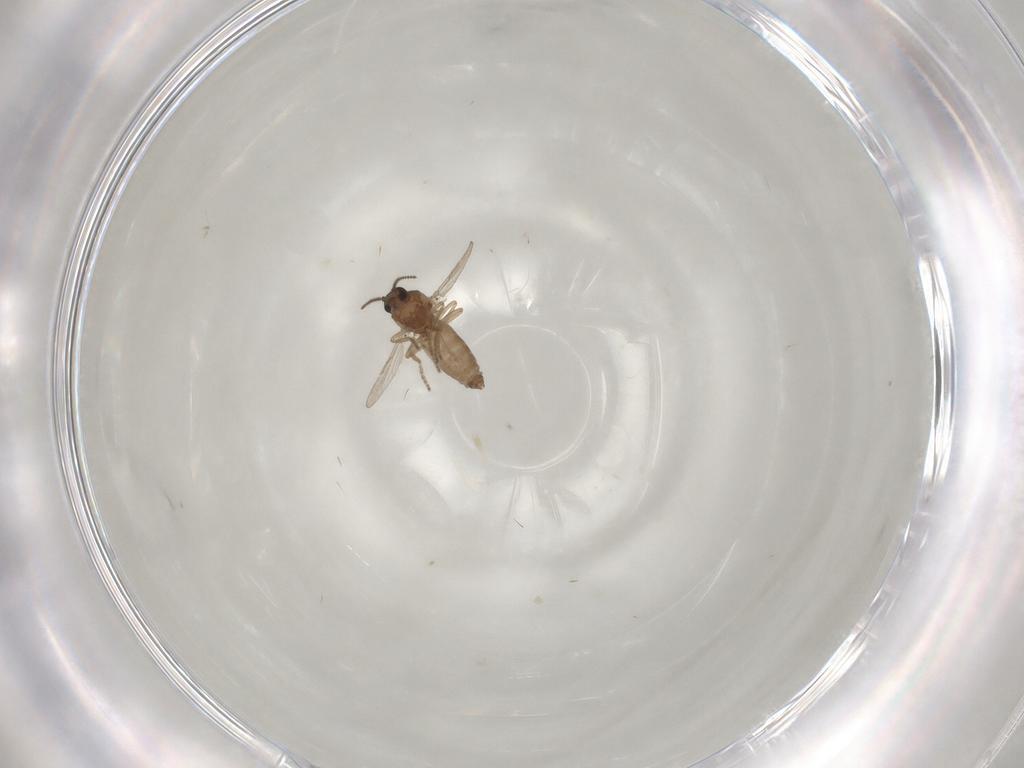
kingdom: Animalia
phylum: Arthropoda
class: Insecta
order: Diptera
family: Ceratopogonidae
